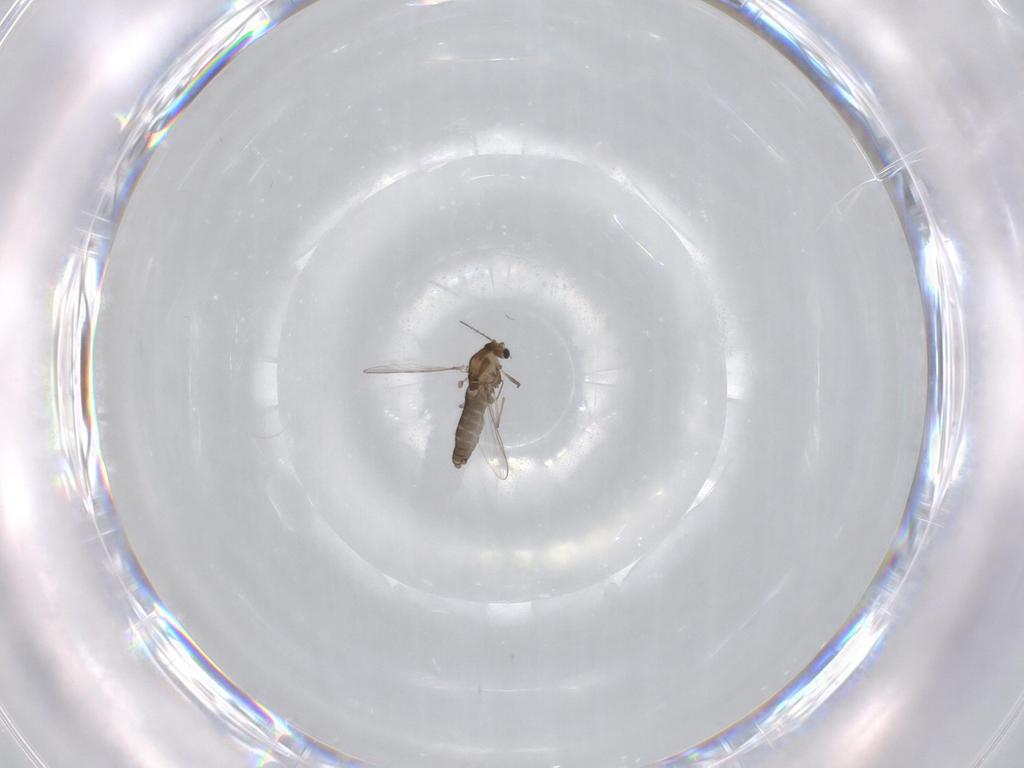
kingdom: Animalia
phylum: Arthropoda
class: Insecta
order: Diptera
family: Chironomidae
